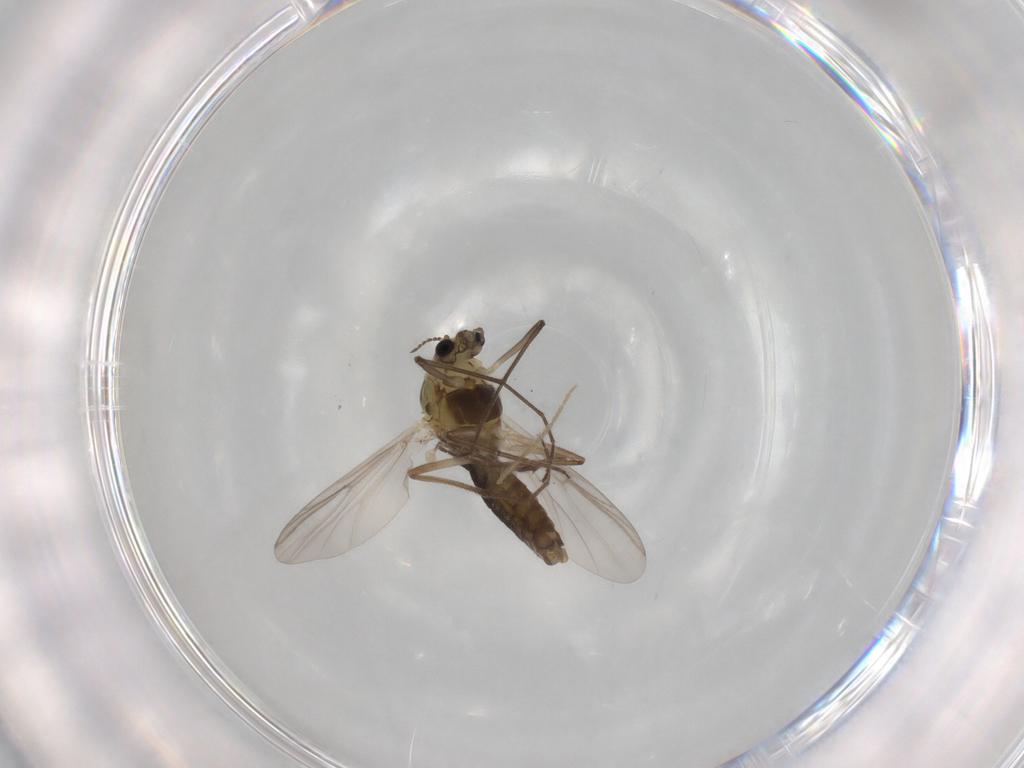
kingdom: Animalia
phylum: Arthropoda
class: Insecta
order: Diptera
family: Chironomidae
